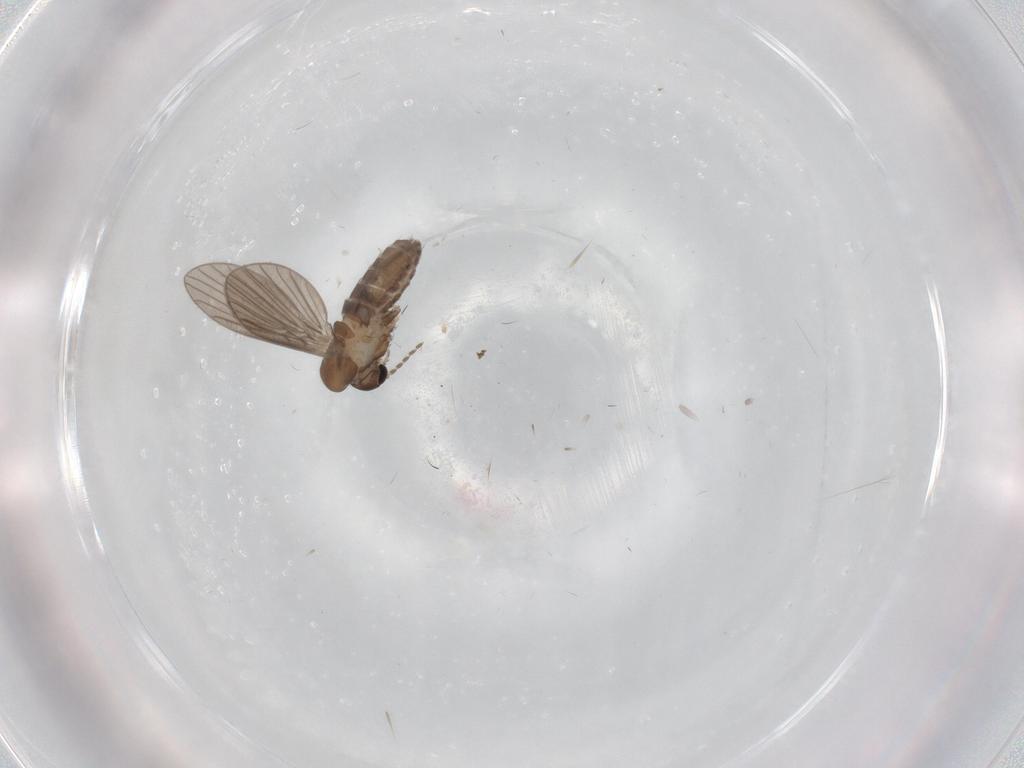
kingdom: Animalia
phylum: Arthropoda
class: Insecta
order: Diptera
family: Psychodidae
